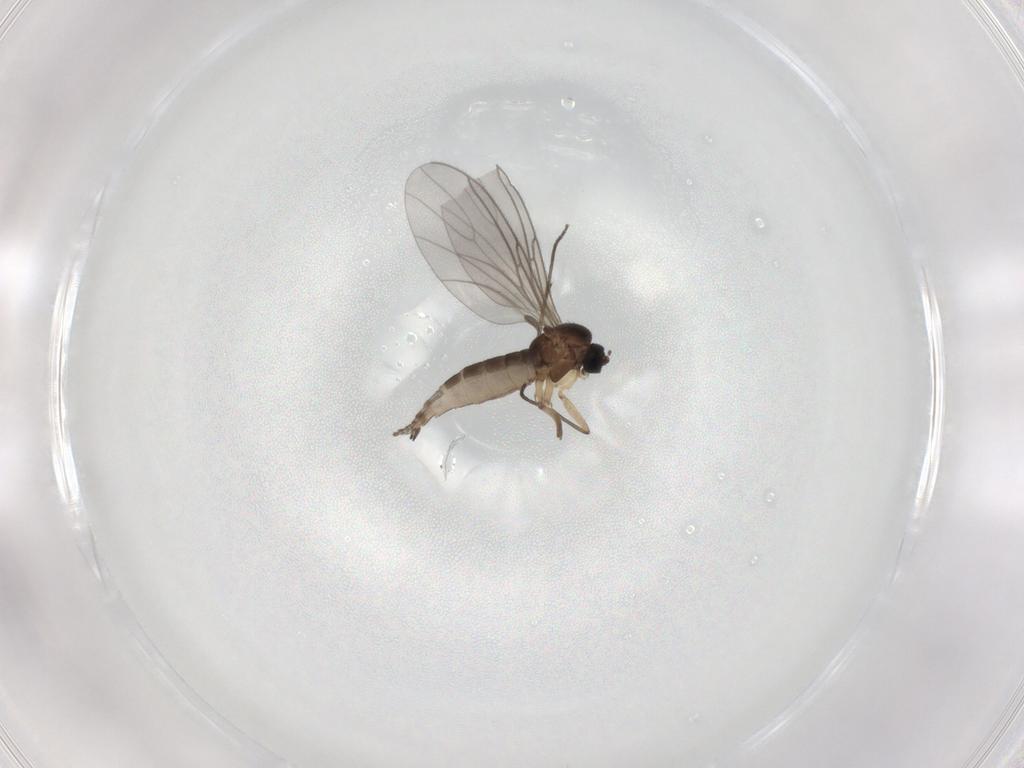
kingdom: Animalia
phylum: Arthropoda
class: Insecta
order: Diptera
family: Sciaridae
